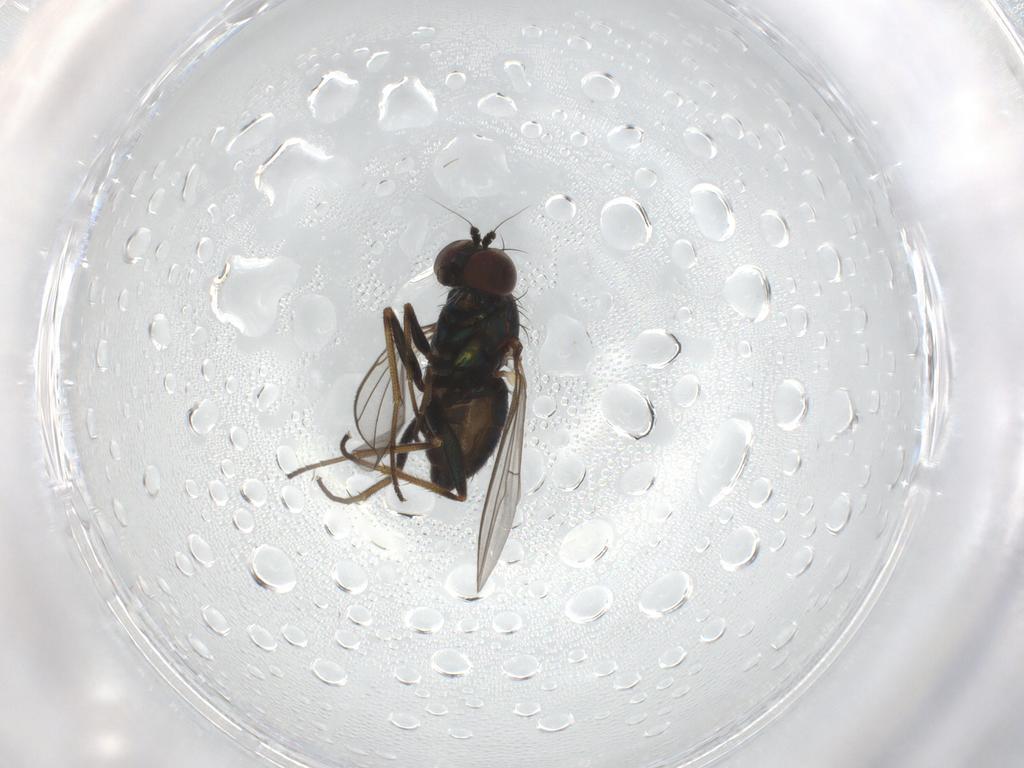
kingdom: Animalia
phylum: Arthropoda
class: Insecta
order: Diptera
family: Dolichopodidae
